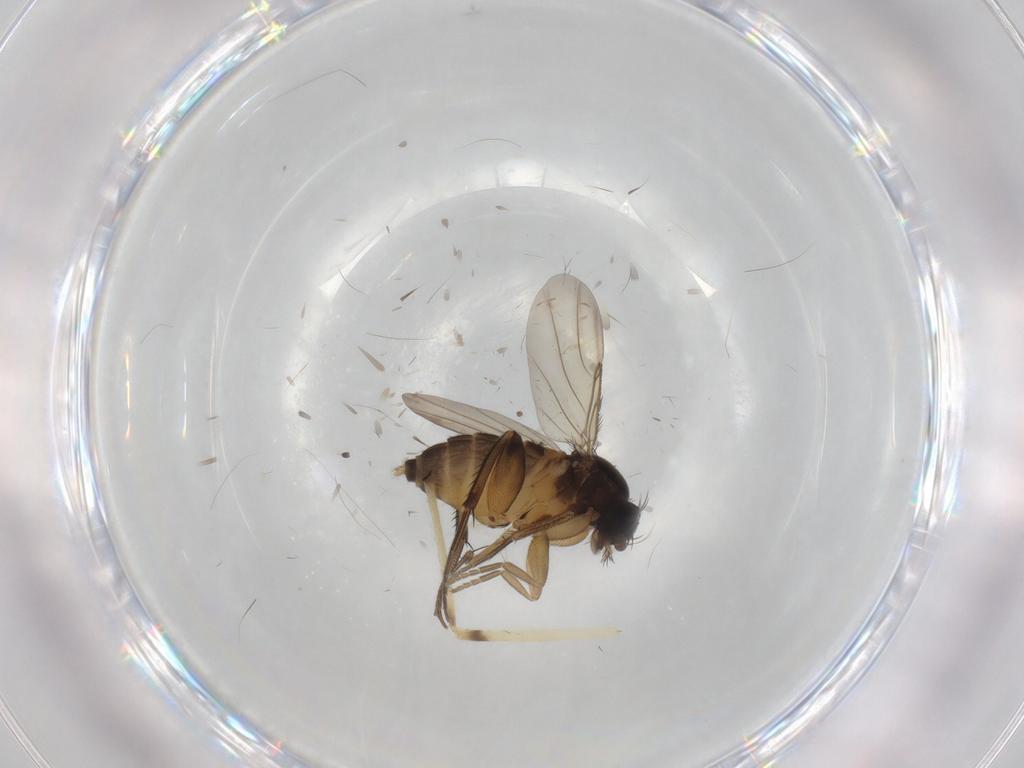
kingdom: Animalia
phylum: Arthropoda
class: Insecta
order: Diptera
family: Phoridae
